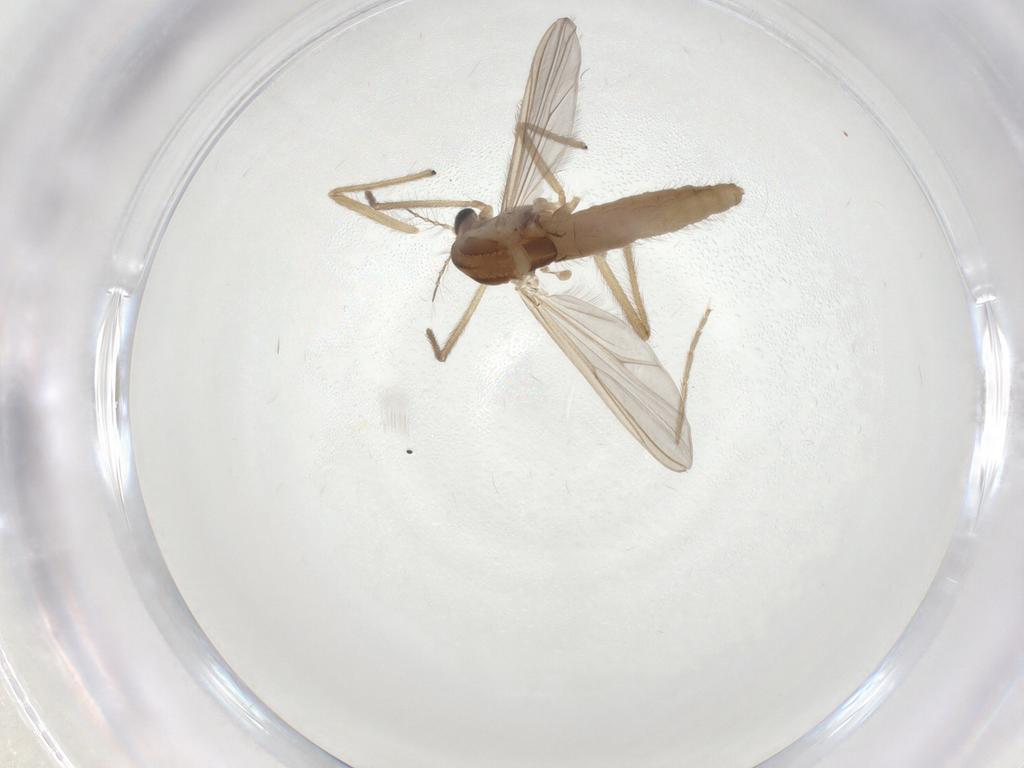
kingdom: Animalia
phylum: Arthropoda
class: Insecta
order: Diptera
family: Chironomidae
